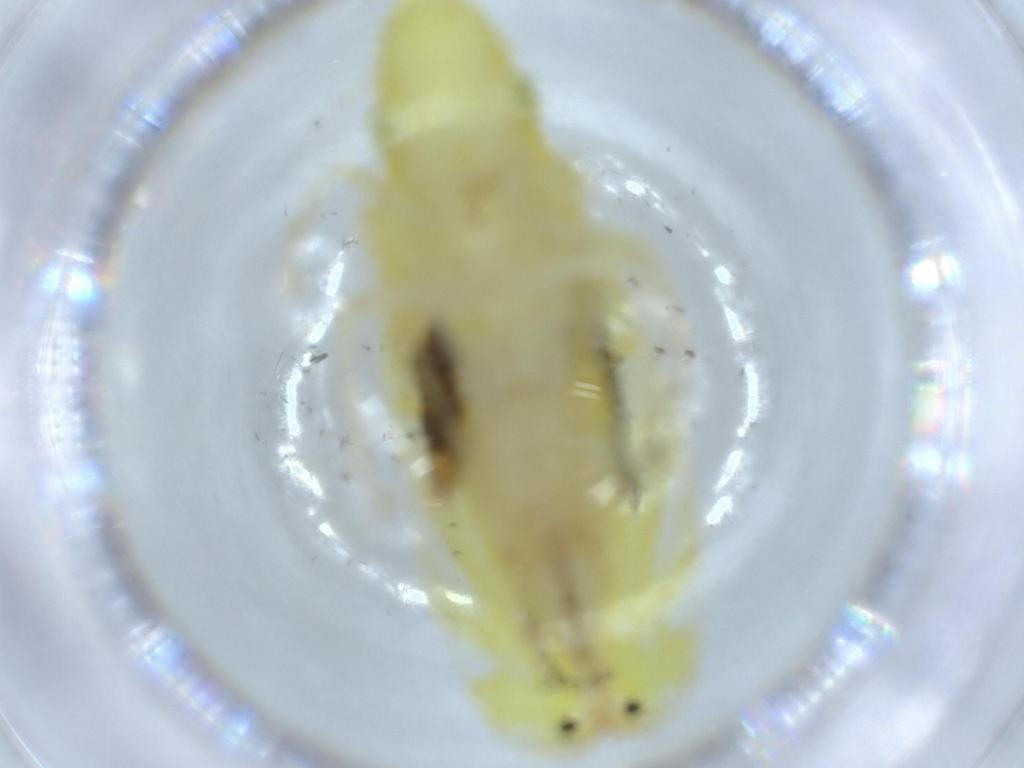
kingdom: Animalia
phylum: Arthropoda
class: Insecta
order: Hemiptera
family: Cicadellidae
